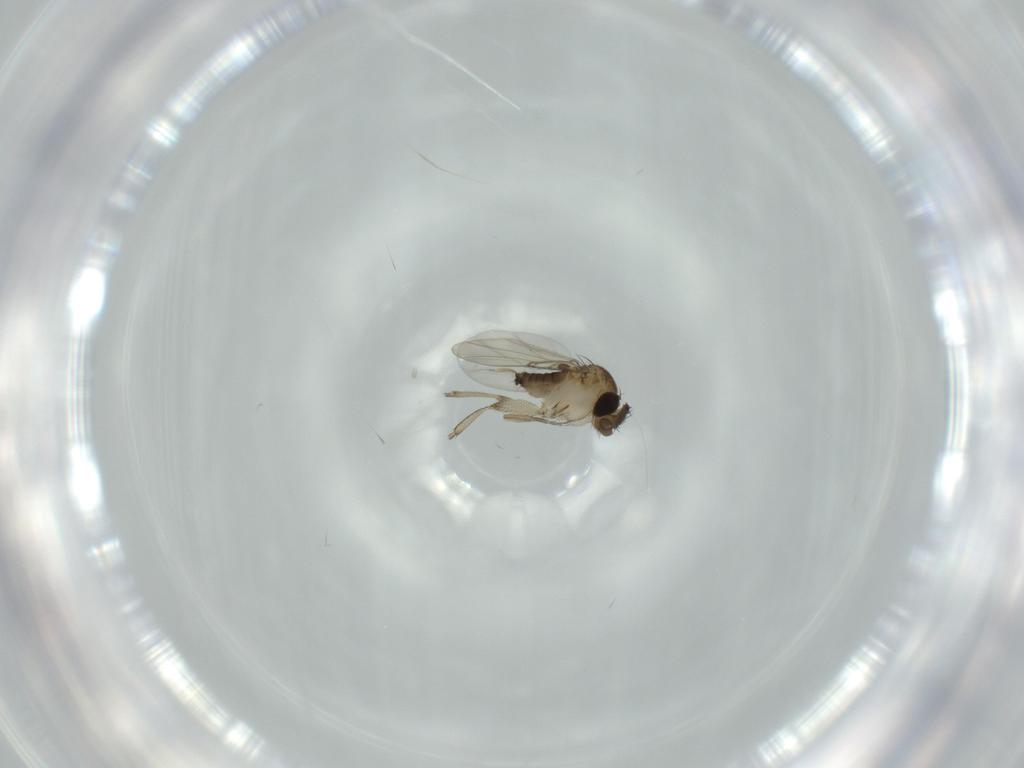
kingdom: Animalia
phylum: Arthropoda
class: Insecta
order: Diptera
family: Phoridae
